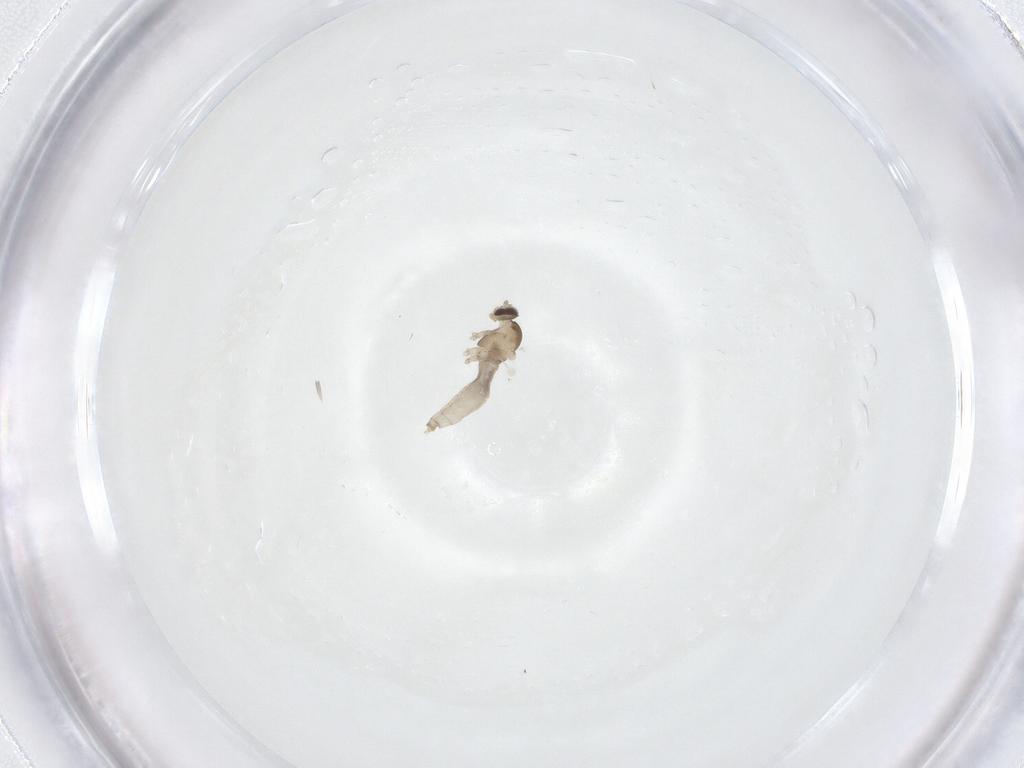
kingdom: Animalia
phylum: Arthropoda
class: Insecta
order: Diptera
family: Cecidomyiidae
